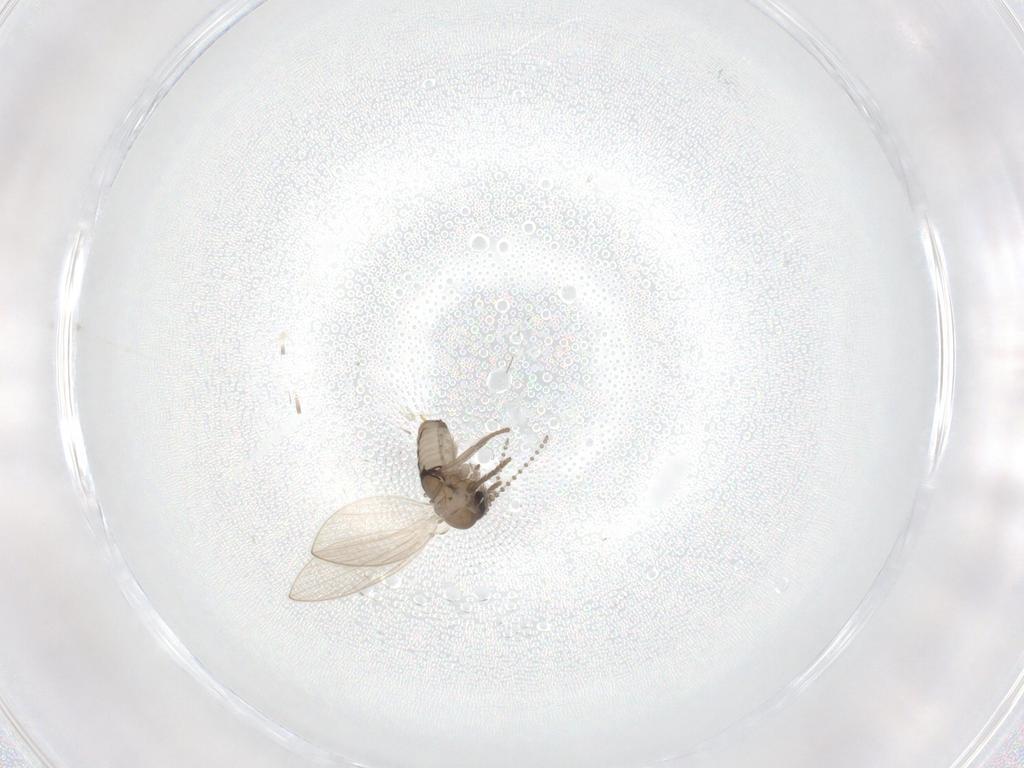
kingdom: Animalia
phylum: Arthropoda
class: Insecta
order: Diptera
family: Psychodidae
